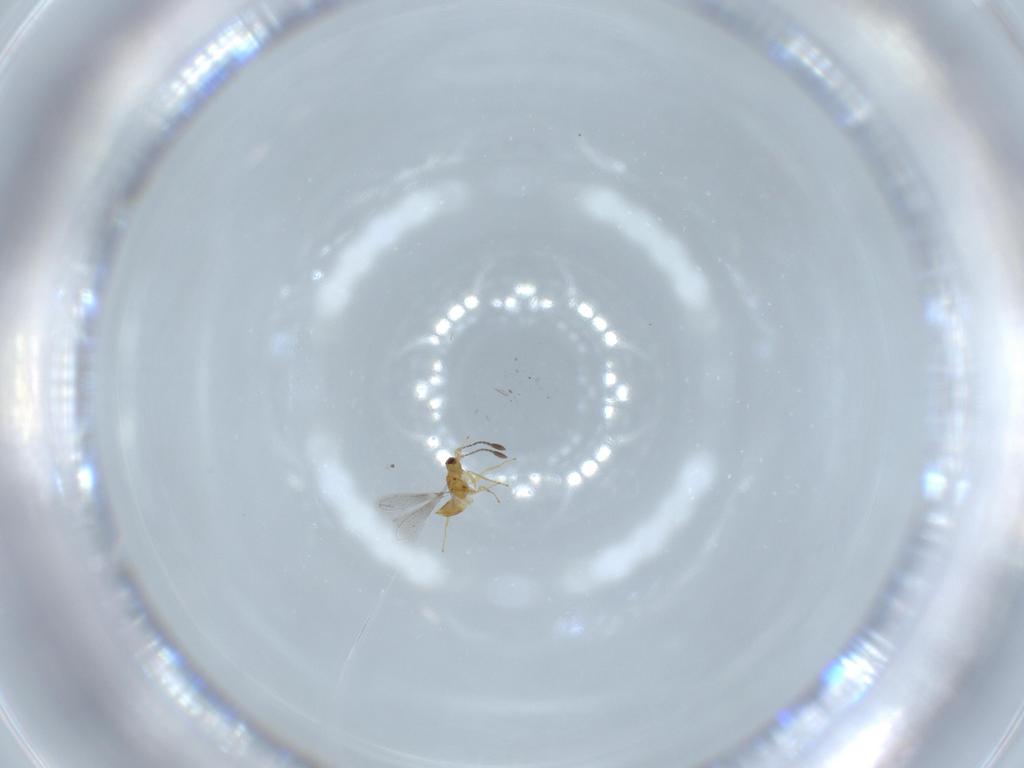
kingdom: Animalia
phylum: Arthropoda
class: Insecta
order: Hymenoptera
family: Mymaridae
